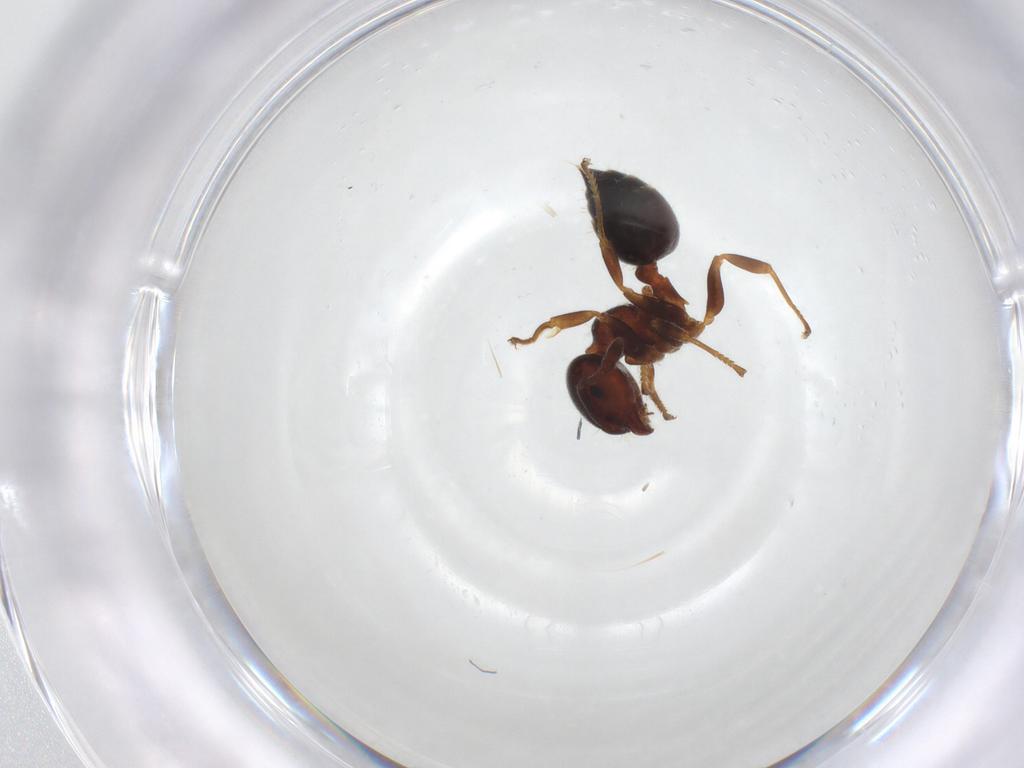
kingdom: Animalia
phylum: Arthropoda
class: Insecta
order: Hymenoptera
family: Formicidae
